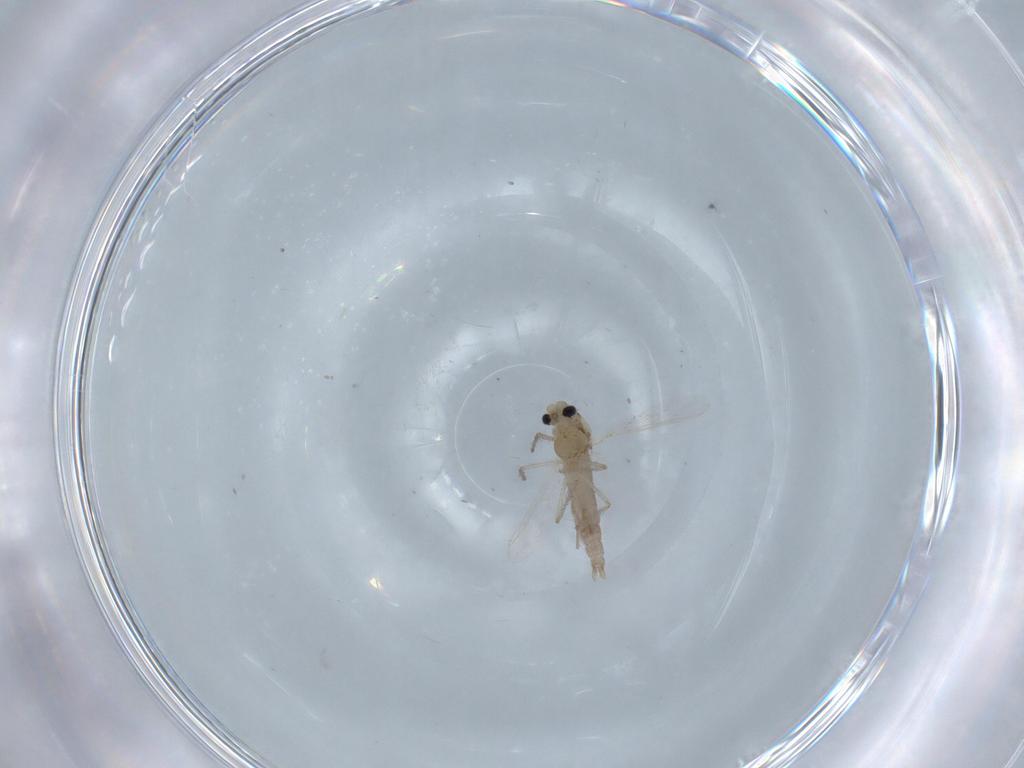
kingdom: Animalia
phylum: Arthropoda
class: Insecta
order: Diptera
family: Chironomidae
